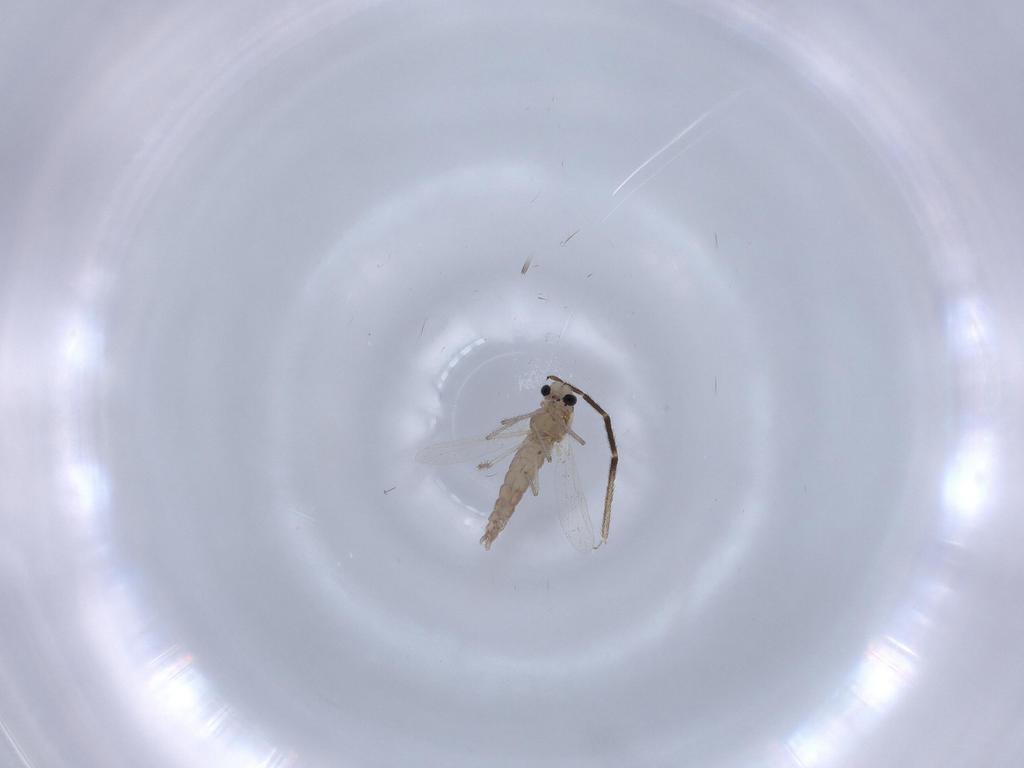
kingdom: Animalia
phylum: Arthropoda
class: Insecta
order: Diptera
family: Chironomidae
